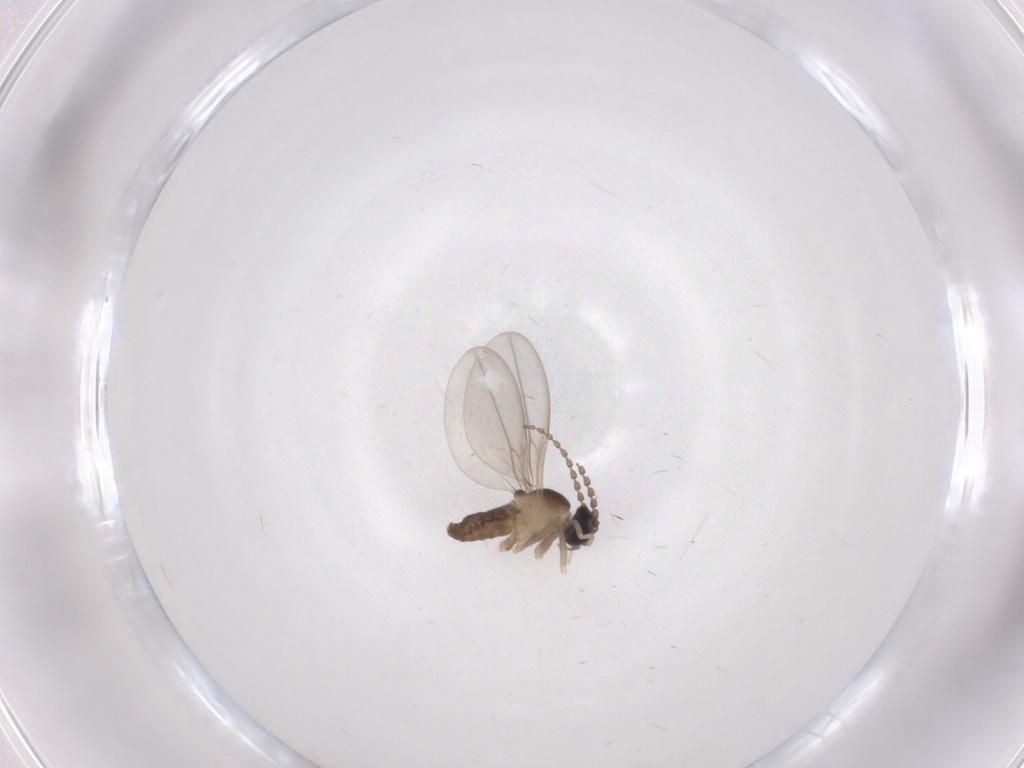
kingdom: Animalia
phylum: Arthropoda
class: Insecta
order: Diptera
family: Cecidomyiidae
